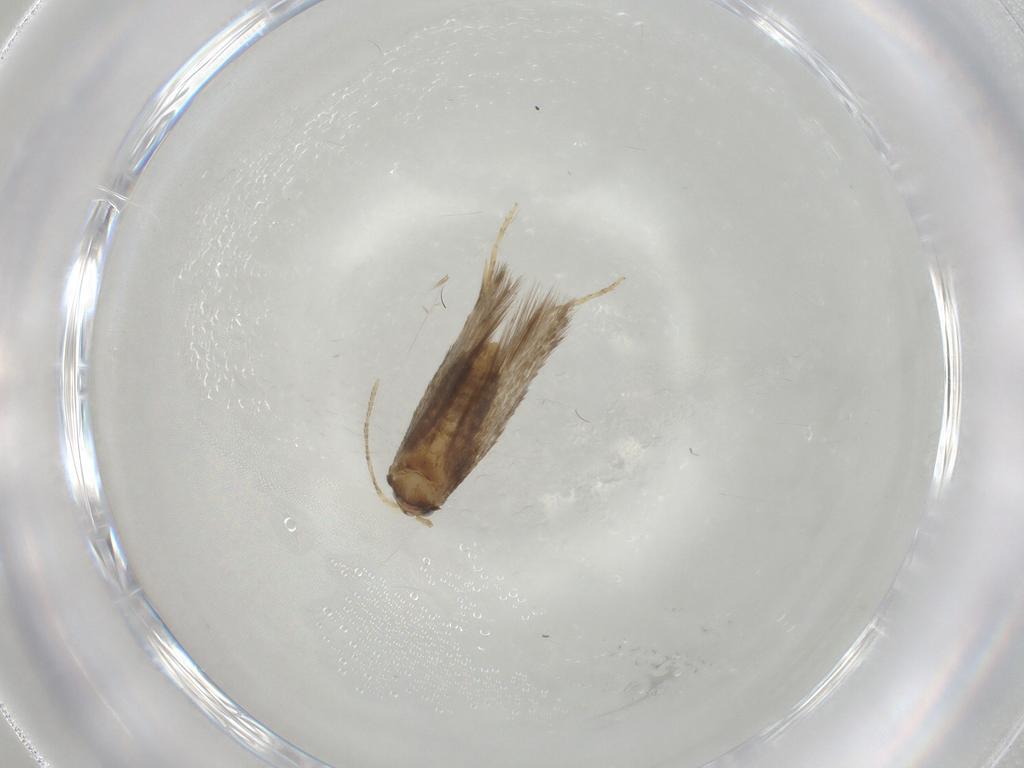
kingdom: Animalia
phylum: Arthropoda
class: Insecta
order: Lepidoptera
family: Nepticulidae
